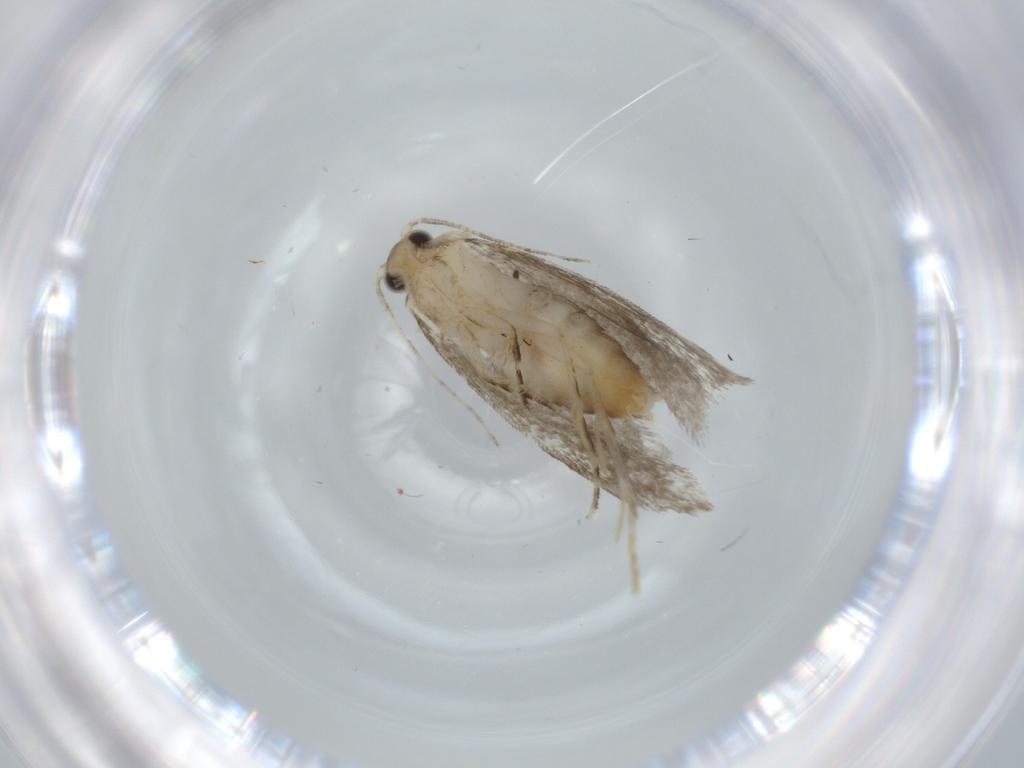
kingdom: Animalia
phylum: Arthropoda
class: Insecta
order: Lepidoptera
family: Tineidae
